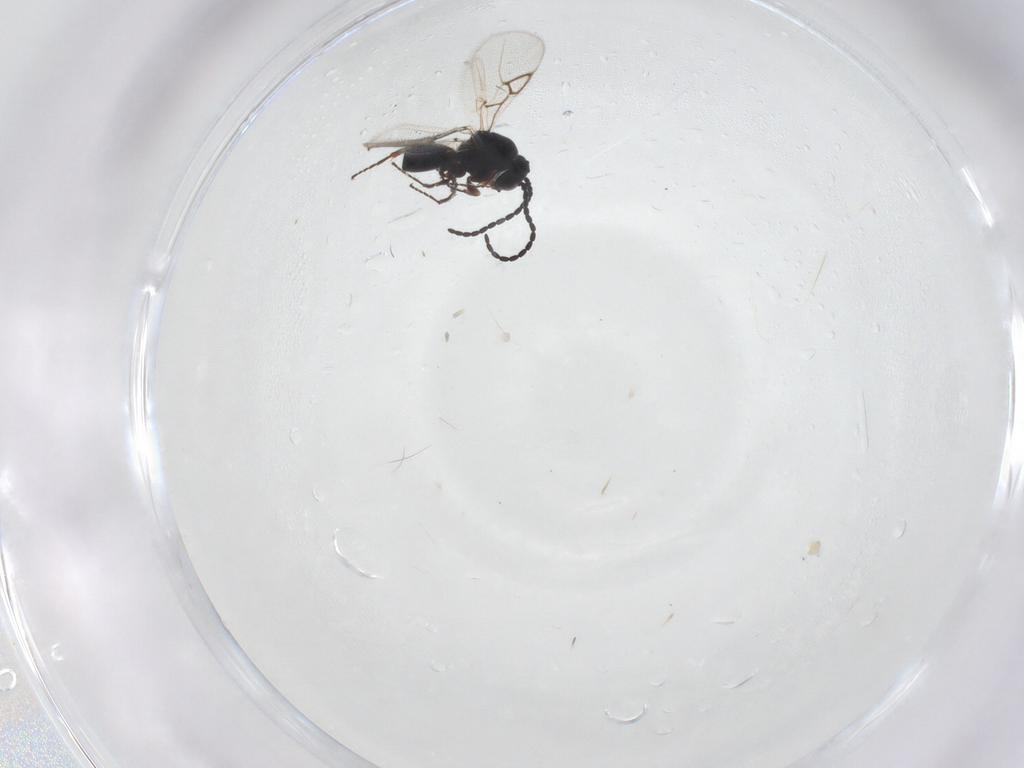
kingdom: Animalia
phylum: Arthropoda
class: Insecta
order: Hymenoptera
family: Figitidae
